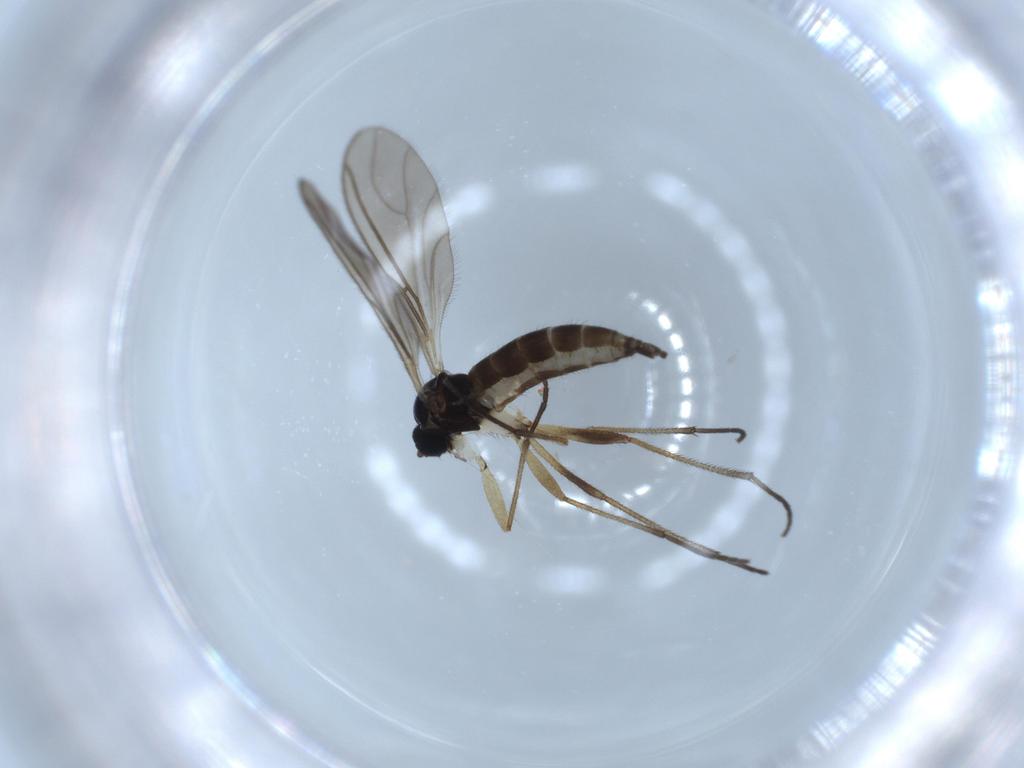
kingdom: Animalia
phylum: Arthropoda
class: Insecta
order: Diptera
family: Sciaridae
